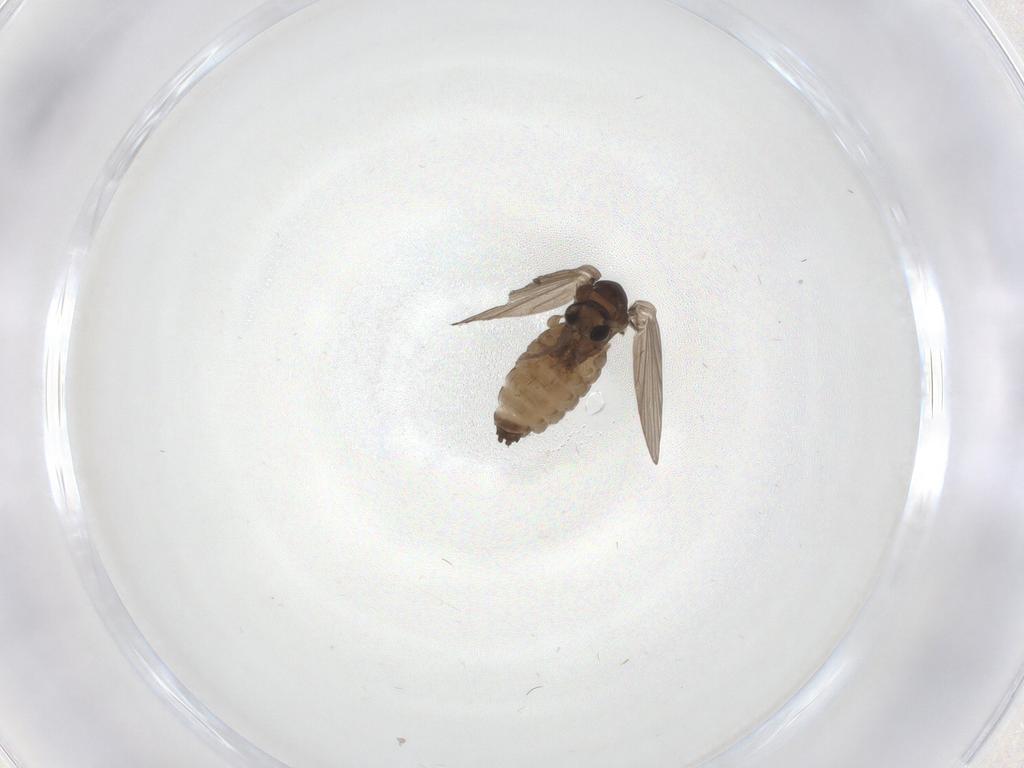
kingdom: Animalia
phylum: Arthropoda
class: Insecta
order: Diptera
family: Psychodidae
